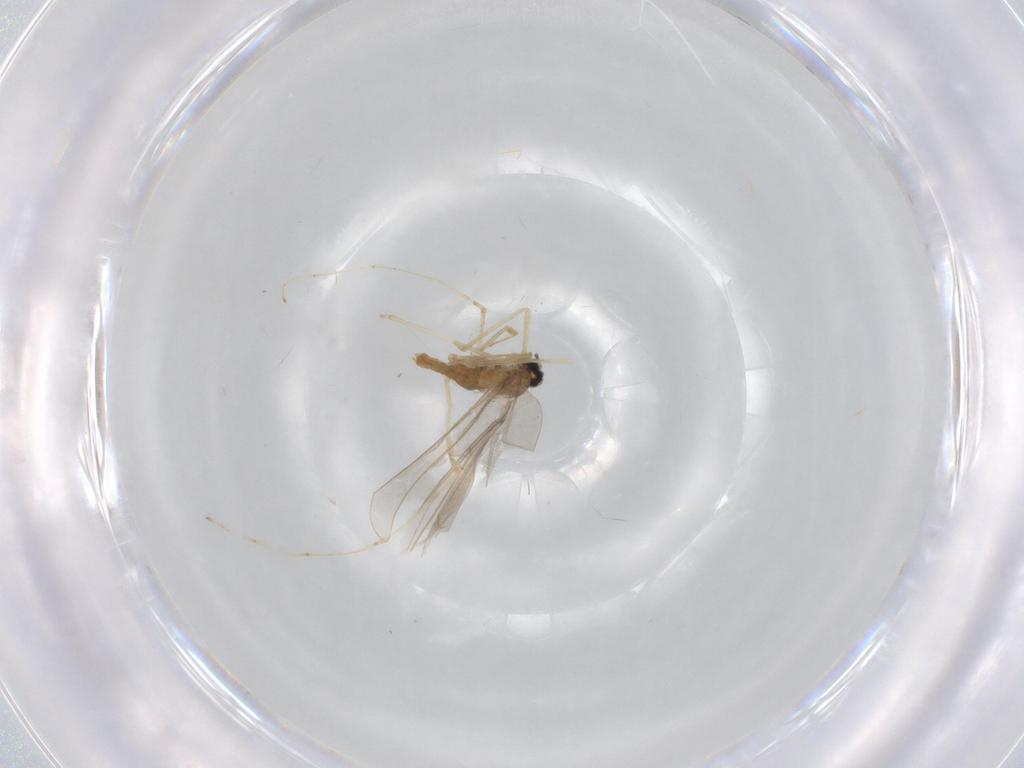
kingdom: Animalia
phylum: Arthropoda
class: Insecta
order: Diptera
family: Cecidomyiidae
